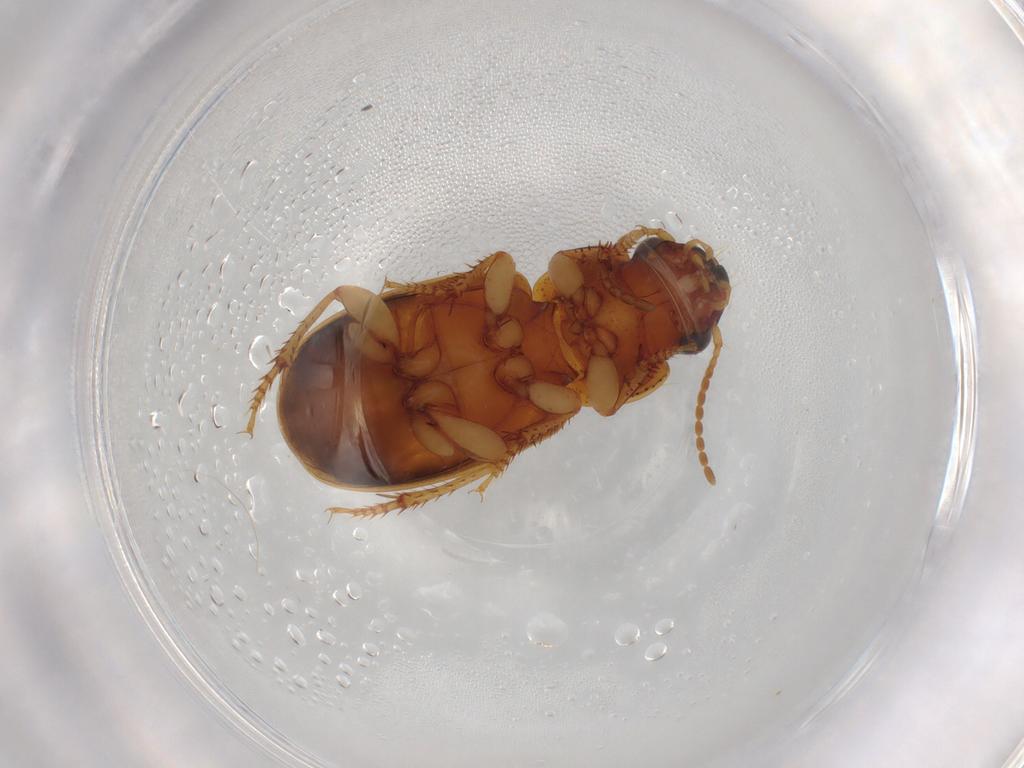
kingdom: Animalia
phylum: Arthropoda
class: Insecta
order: Coleoptera
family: Carabidae
